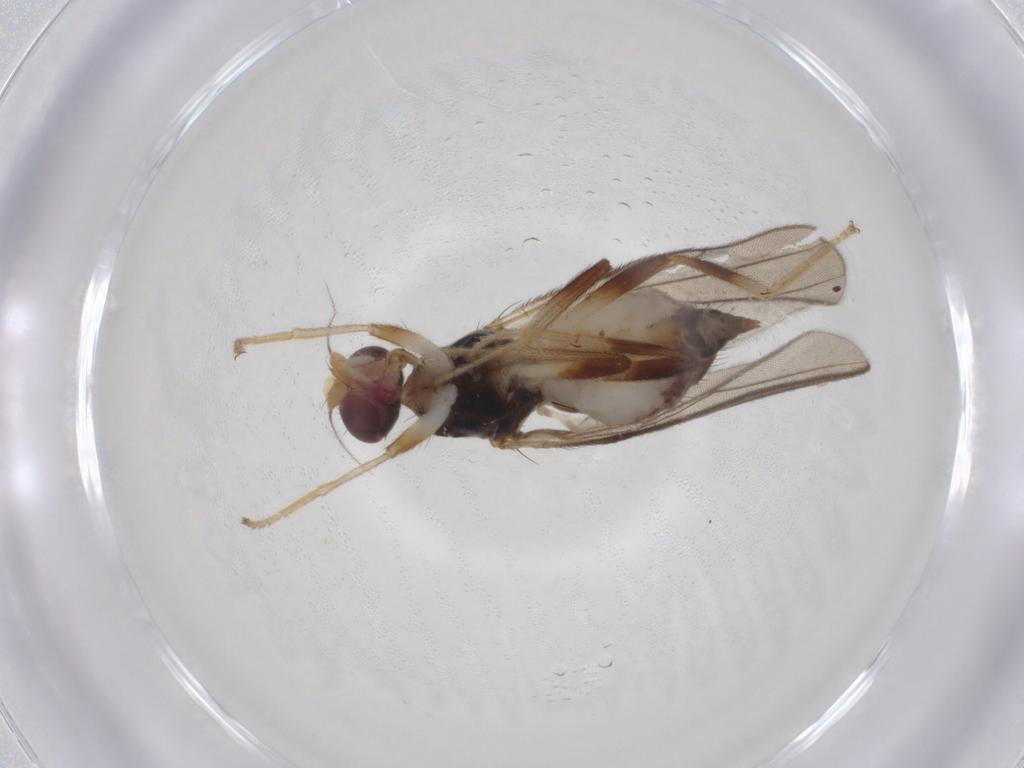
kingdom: Animalia
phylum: Arthropoda
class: Insecta
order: Diptera
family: Chloropidae
